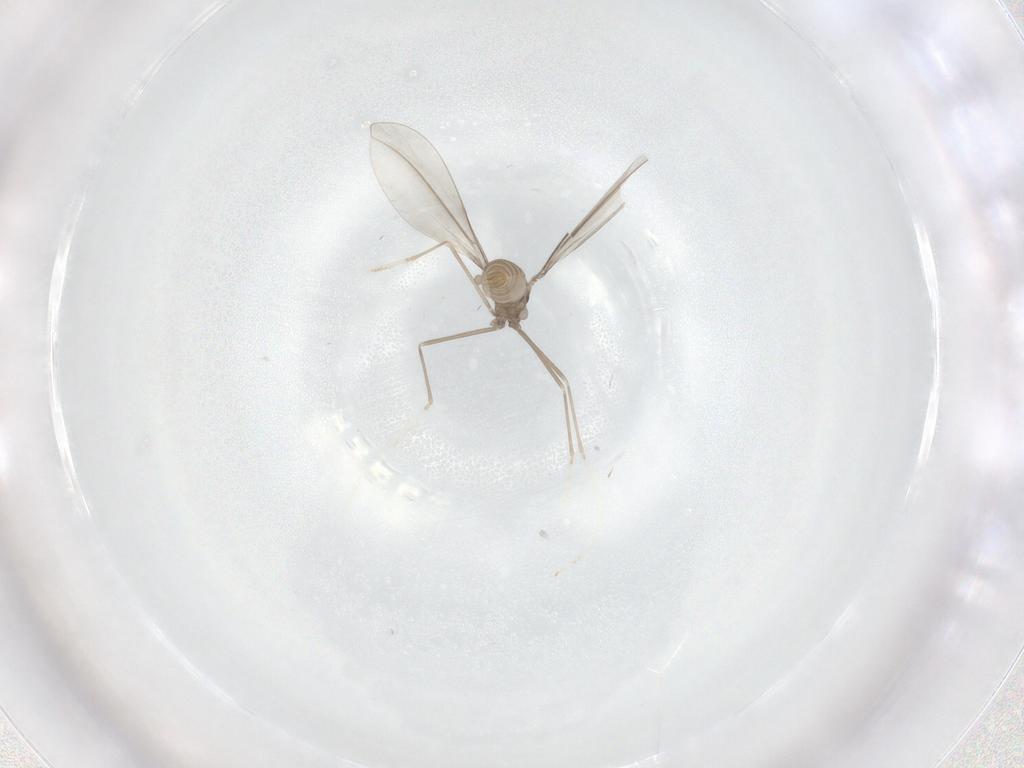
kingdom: Animalia
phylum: Arthropoda
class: Insecta
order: Diptera
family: Cecidomyiidae
